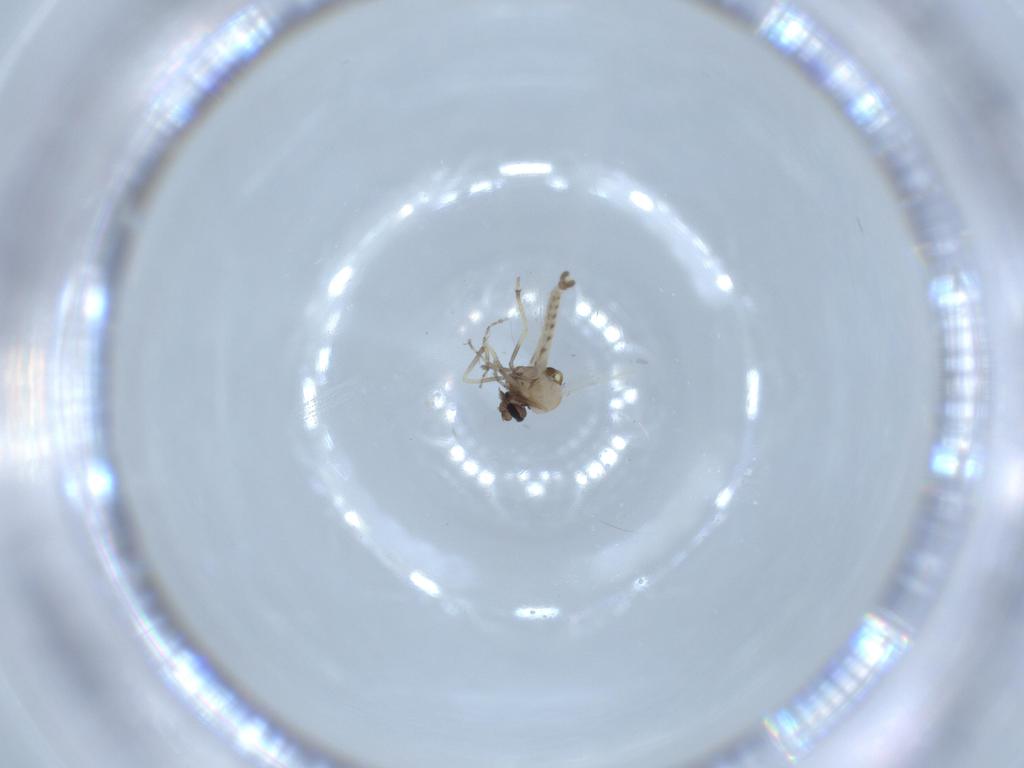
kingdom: Animalia
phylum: Arthropoda
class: Insecta
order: Diptera
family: Ceratopogonidae
